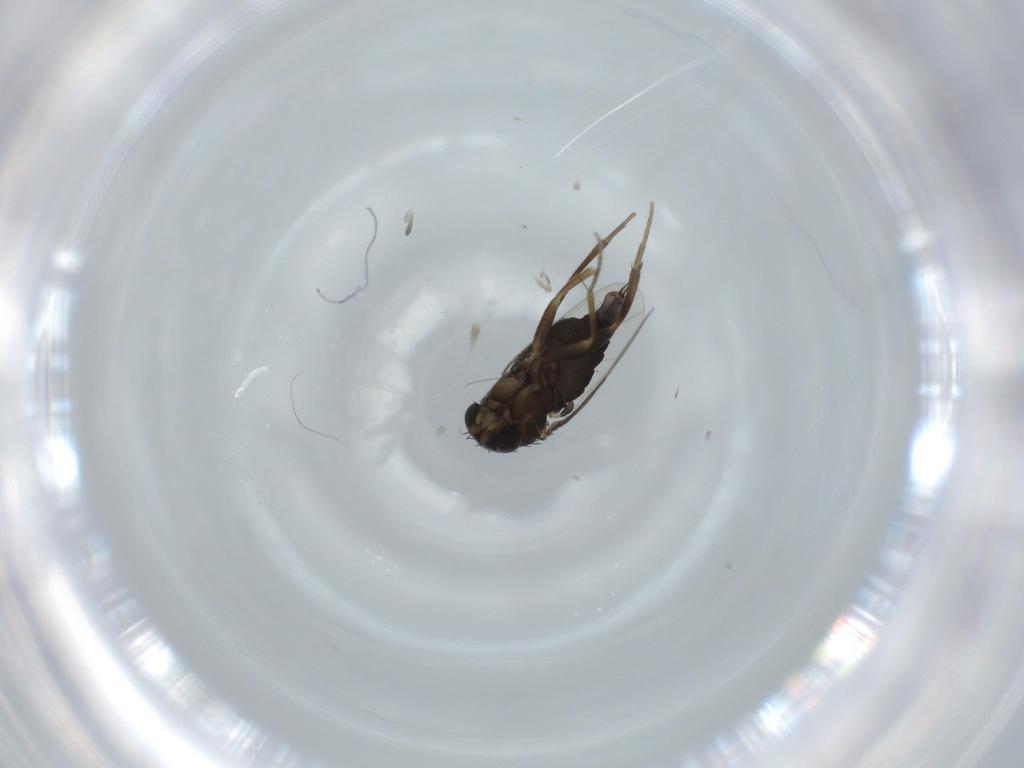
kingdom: Animalia
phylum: Arthropoda
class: Insecta
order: Diptera
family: Phoridae
